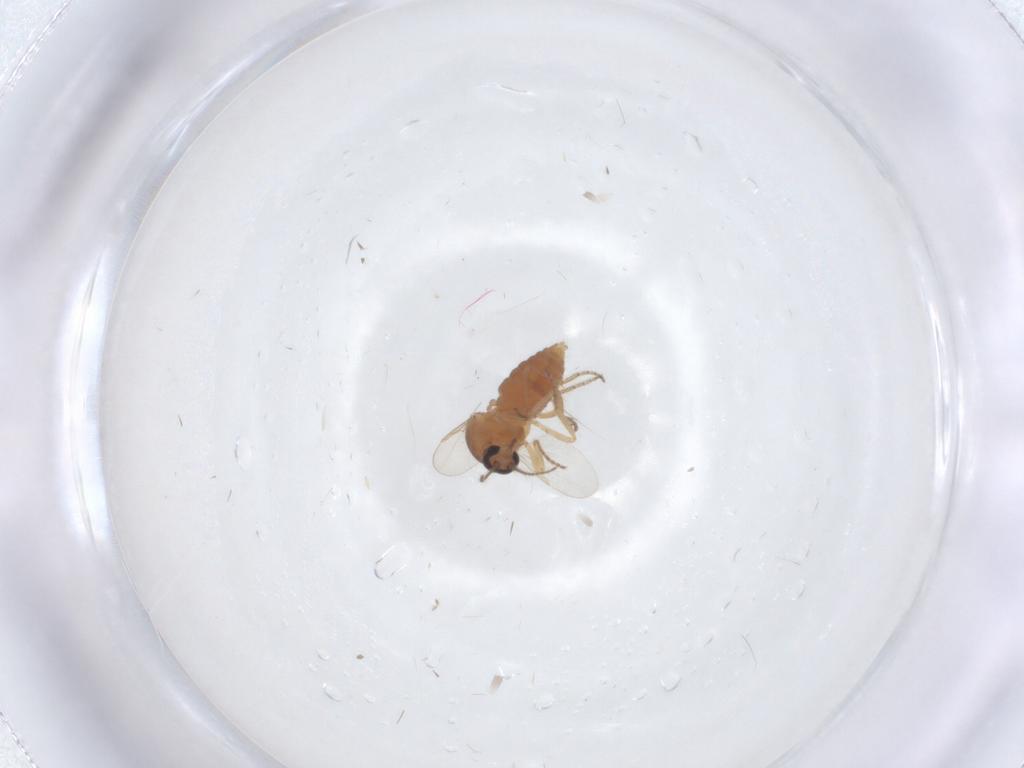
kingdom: Animalia
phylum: Arthropoda
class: Insecta
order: Diptera
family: Ceratopogonidae
